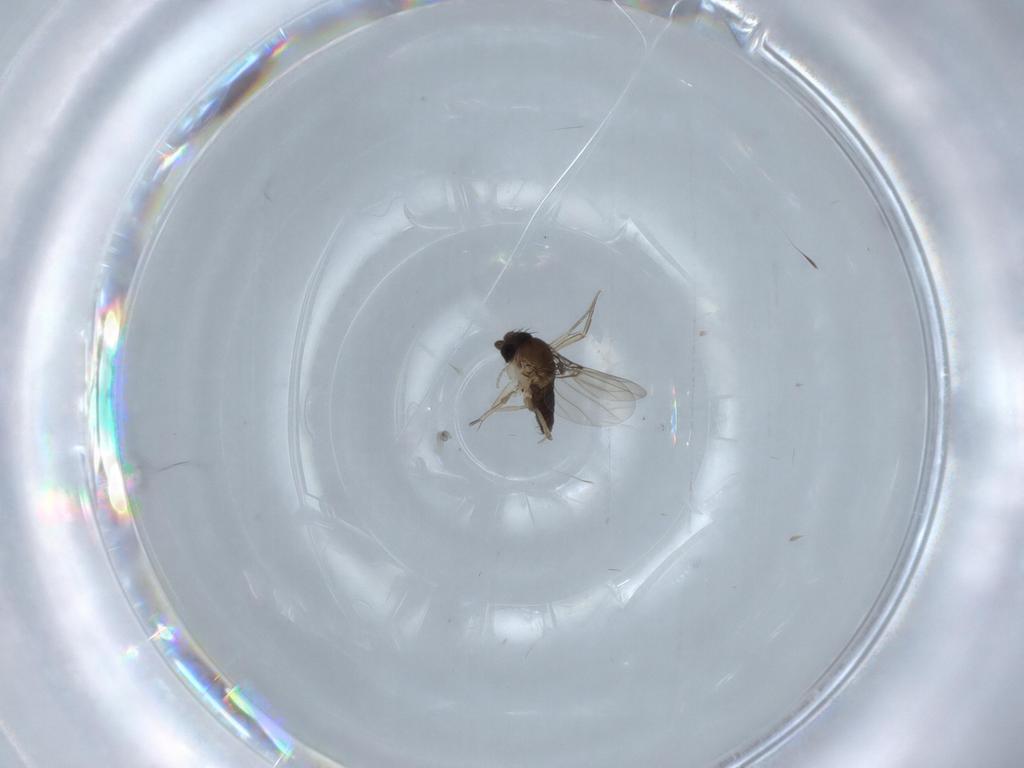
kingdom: Animalia
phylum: Arthropoda
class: Insecta
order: Diptera
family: Phoridae
